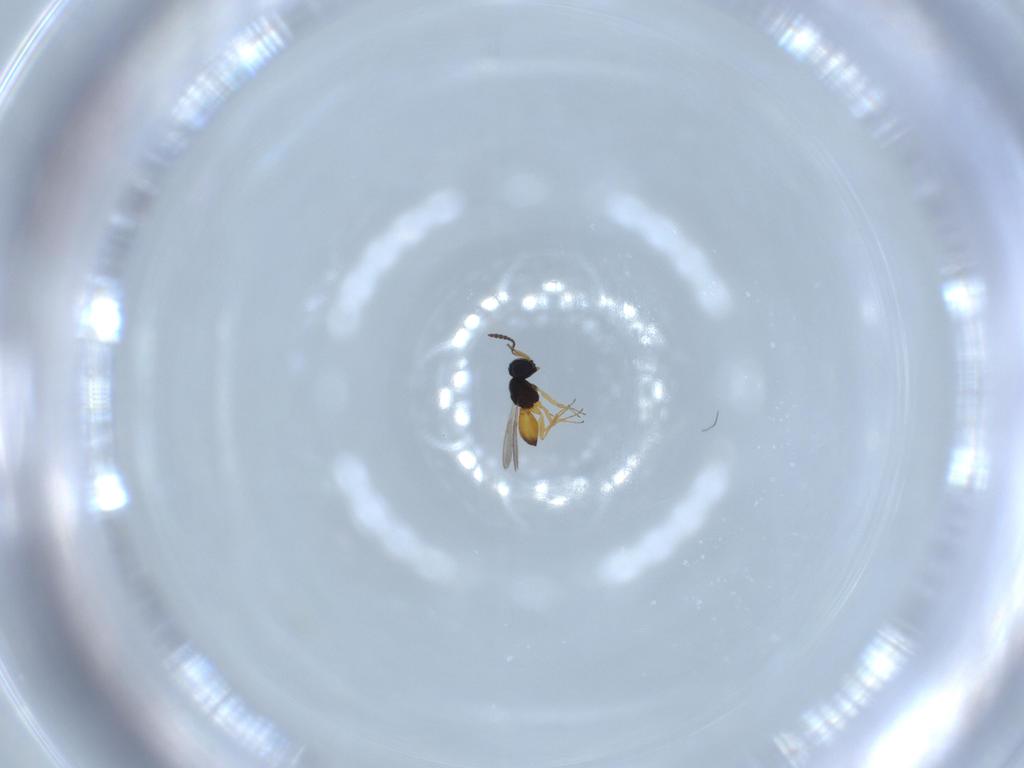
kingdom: Animalia
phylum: Arthropoda
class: Insecta
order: Hymenoptera
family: Scelionidae
